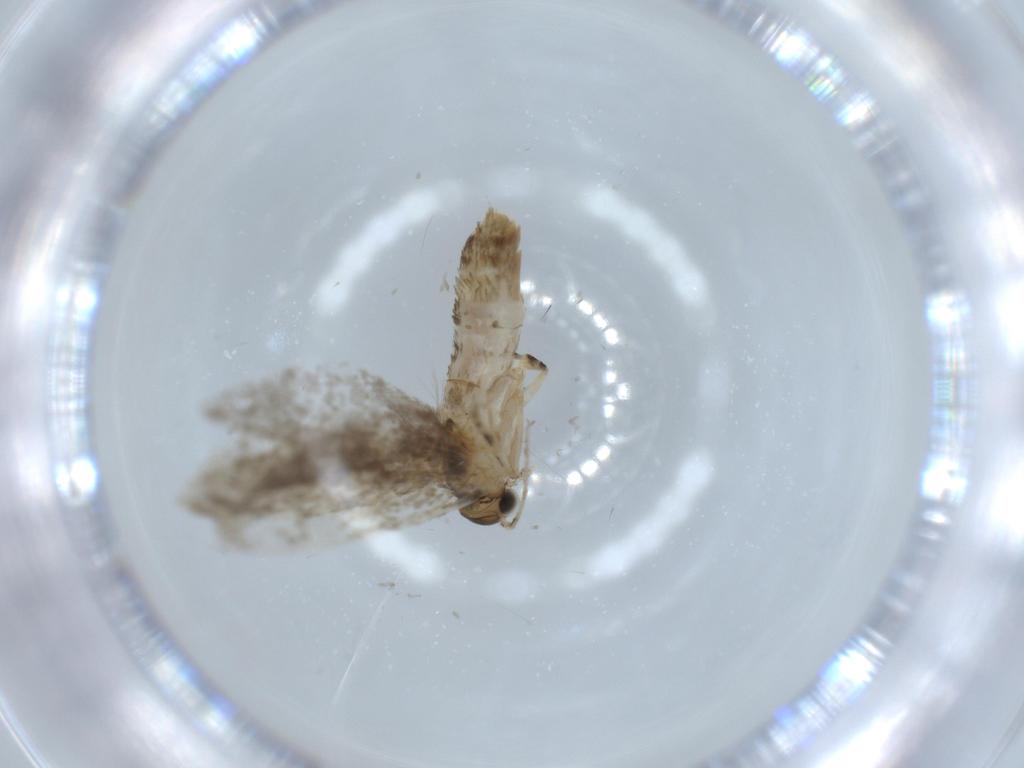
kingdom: Animalia
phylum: Arthropoda
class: Insecta
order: Lepidoptera
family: Tineidae
